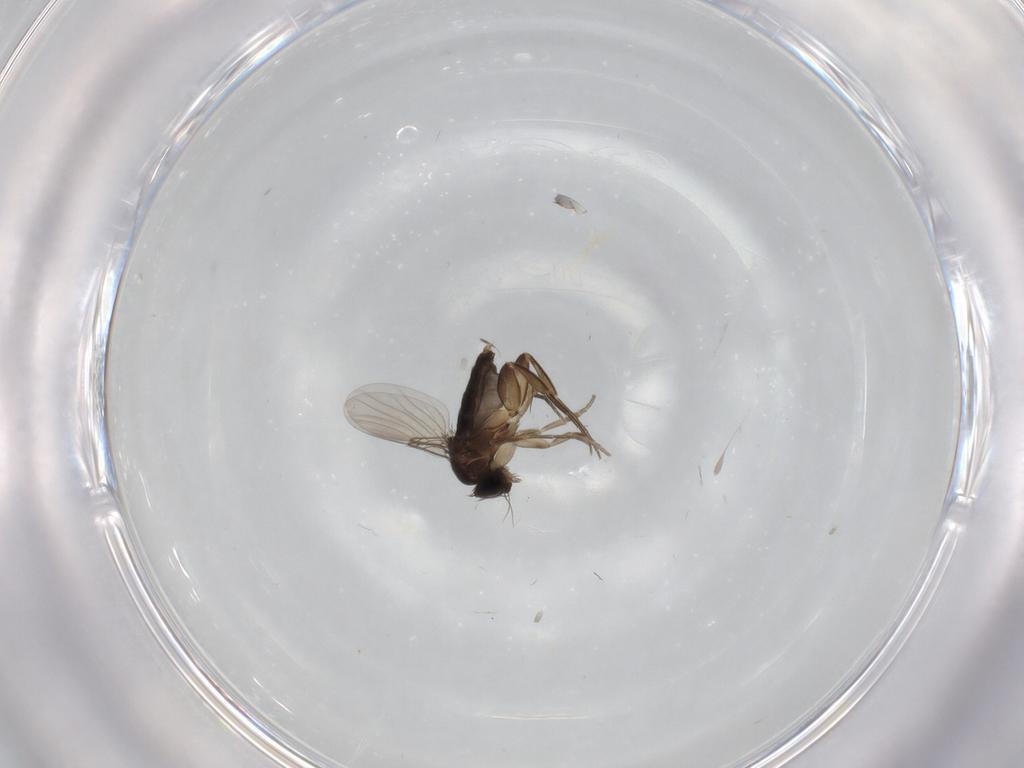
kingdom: Animalia
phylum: Arthropoda
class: Insecta
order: Diptera
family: Phoridae
